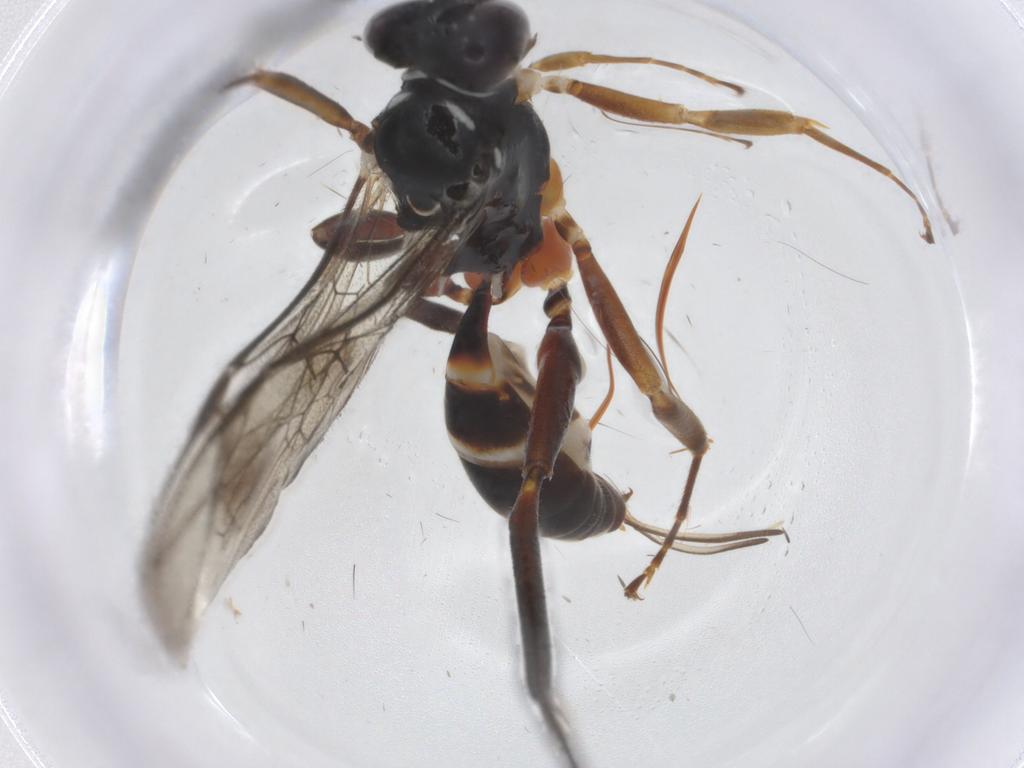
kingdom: Animalia
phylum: Arthropoda
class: Insecta
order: Hymenoptera
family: Ichneumonidae
